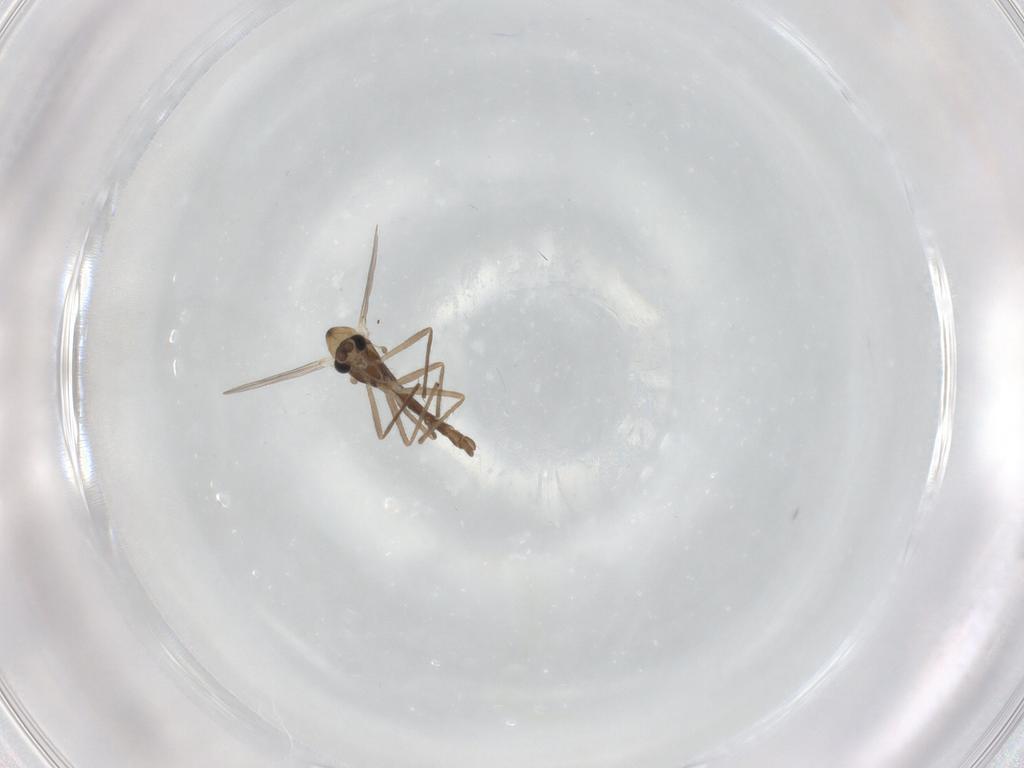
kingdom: Animalia
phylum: Arthropoda
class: Insecta
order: Diptera
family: Chironomidae
